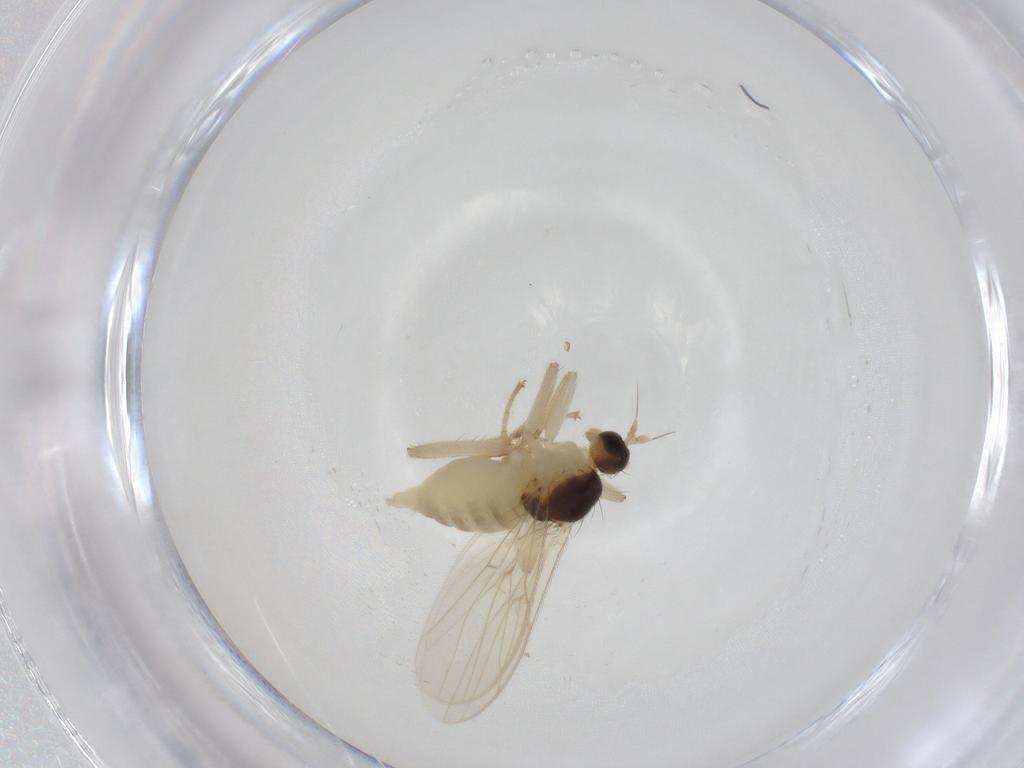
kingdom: Animalia
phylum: Arthropoda
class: Insecta
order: Diptera
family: Hybotidae
